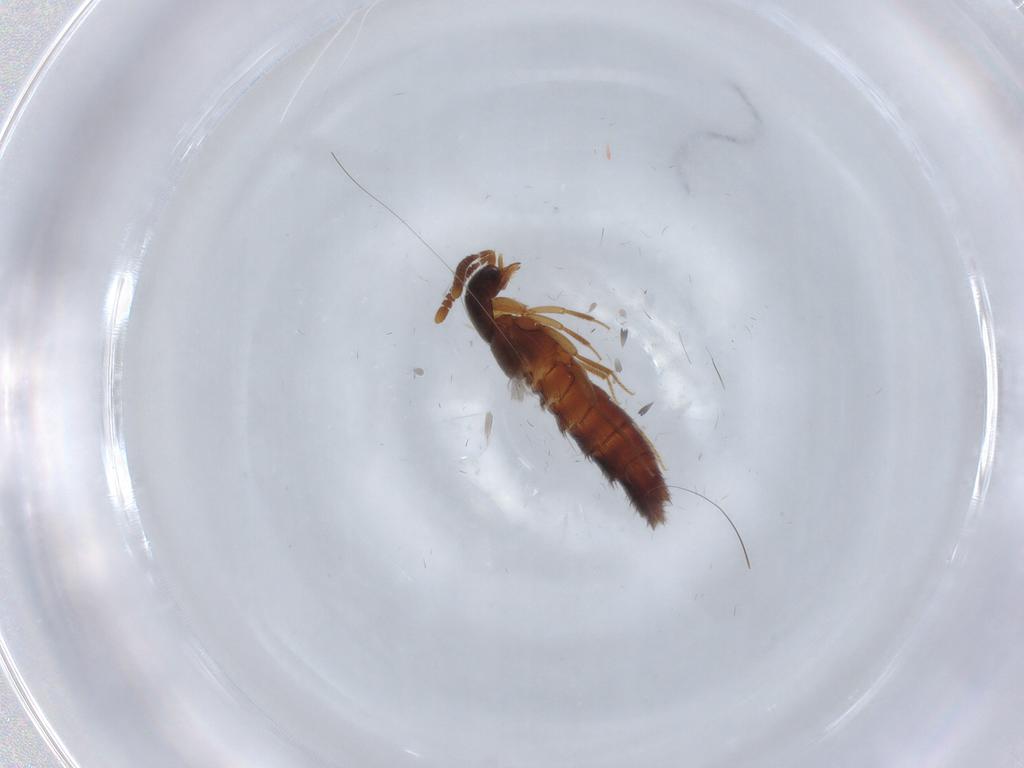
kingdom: Animalia
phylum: Arthropoda
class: Insecta
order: Coleoptera
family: Staphylinidae
